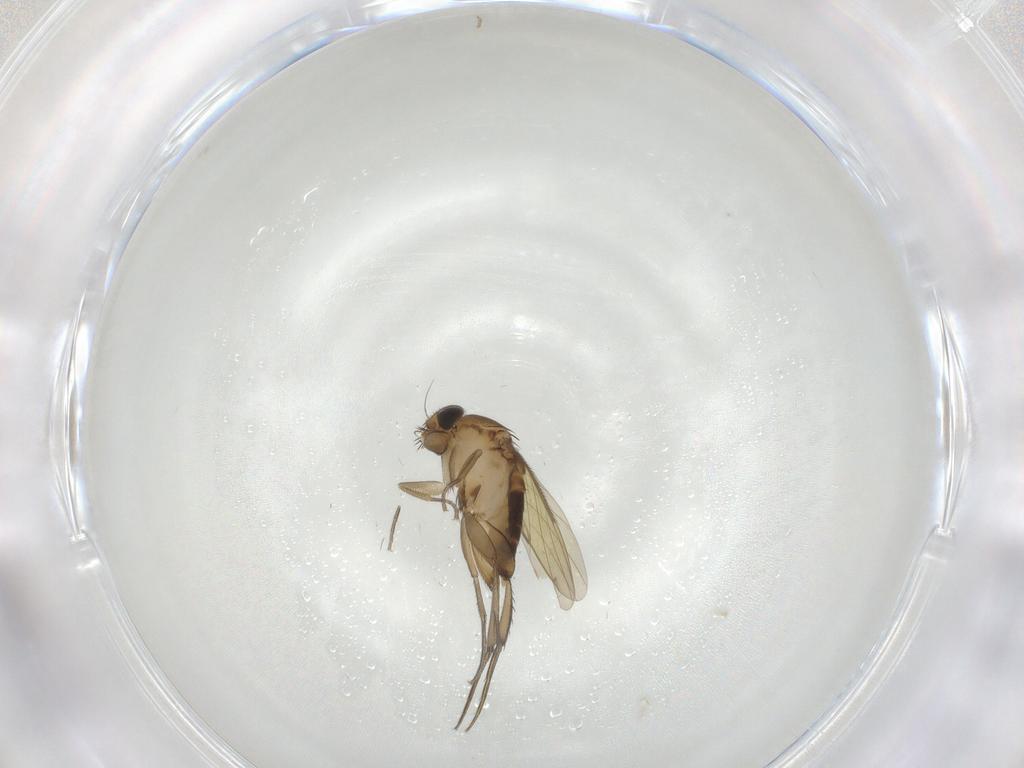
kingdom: Animalia
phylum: Arthropoda
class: Insecta
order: Diptera
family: Phoridae
